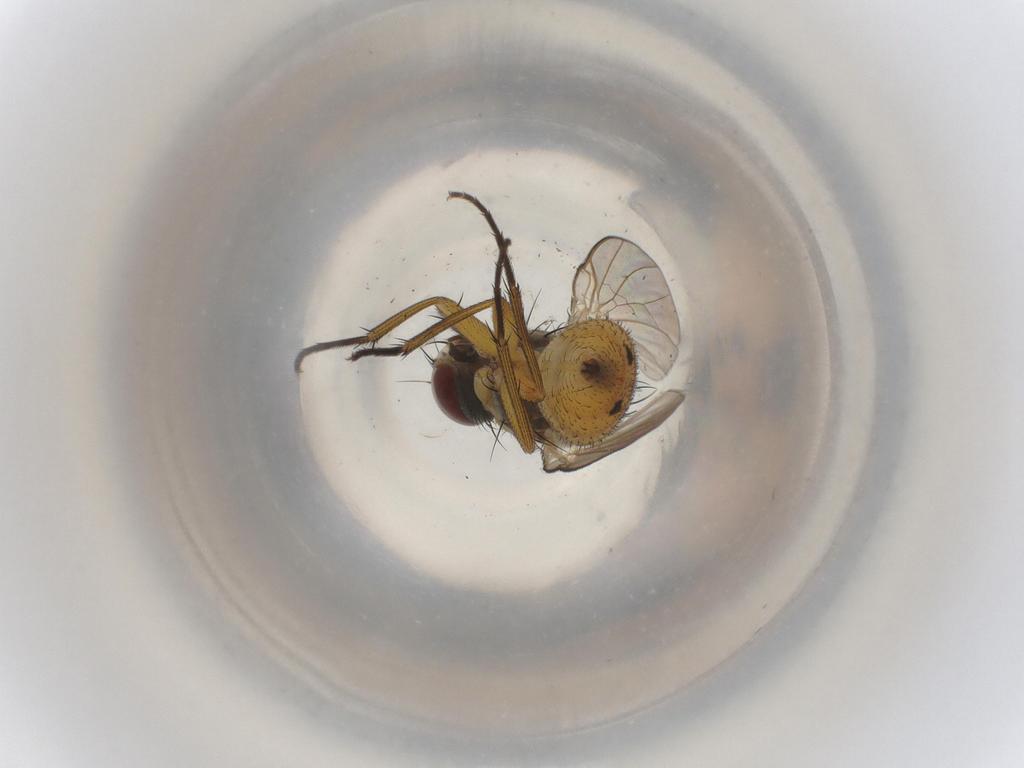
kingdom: Animalia
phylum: Arthropoda
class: Insecta
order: Diptera
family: Muscidae
